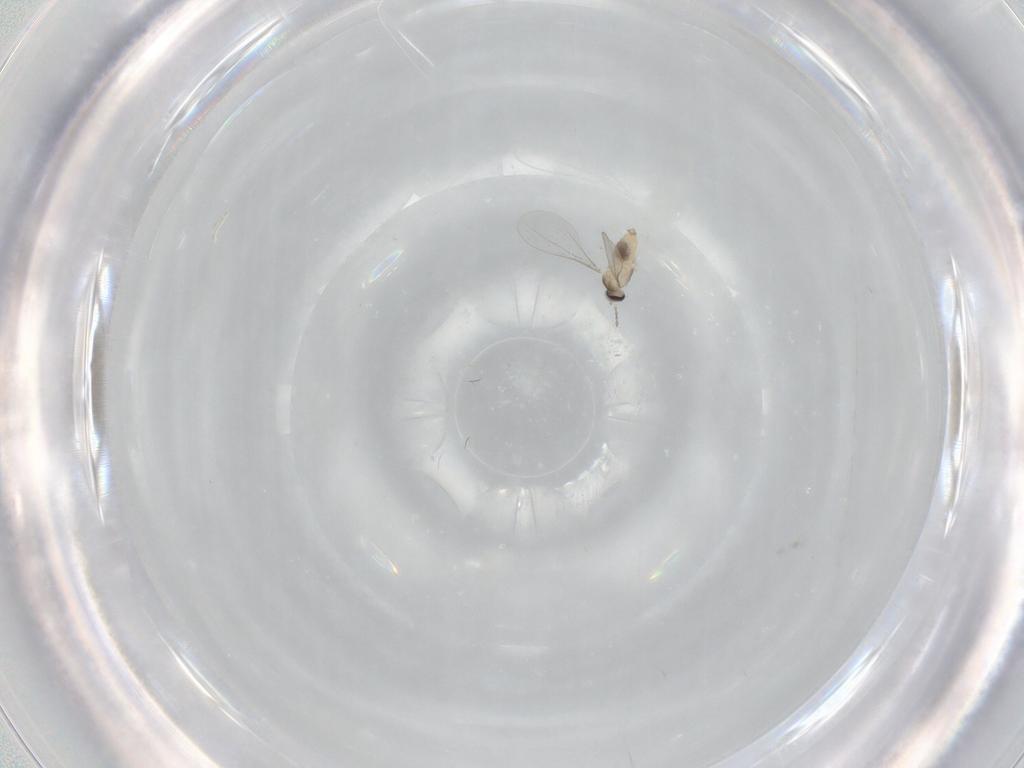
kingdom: Animalia
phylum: Arthropoda
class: Insecta
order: Diptera
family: Cecidomyiidae
